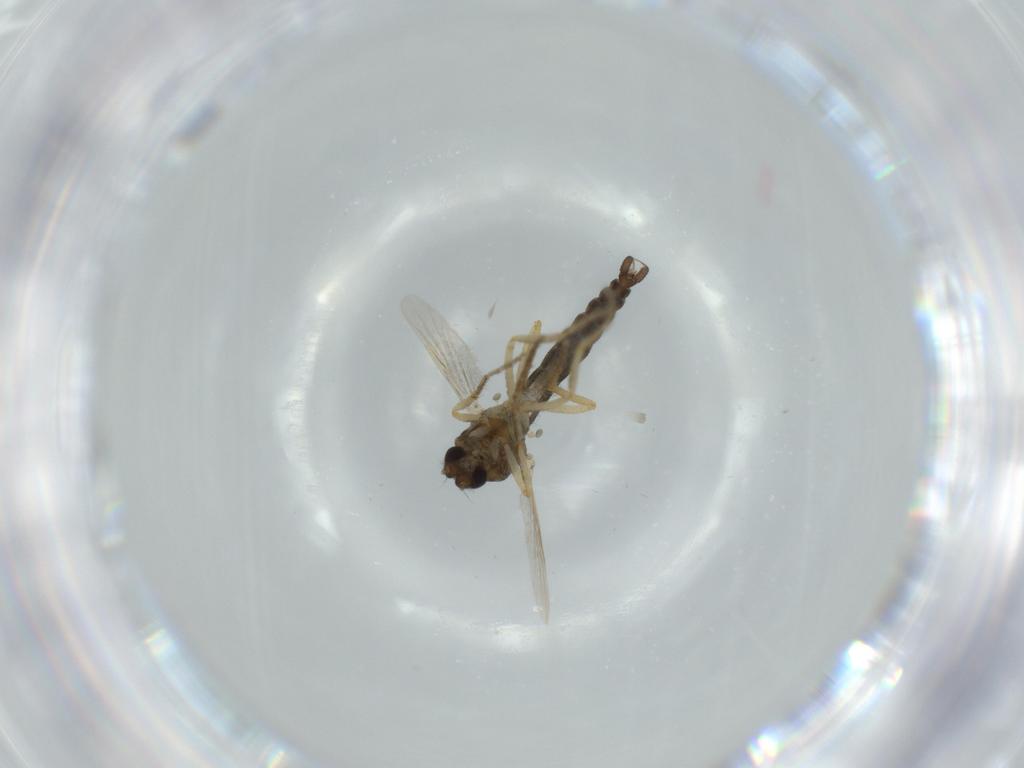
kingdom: Animalia
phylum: Arthropoda
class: Insecta
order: Diptera
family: Ceratopogonidae
